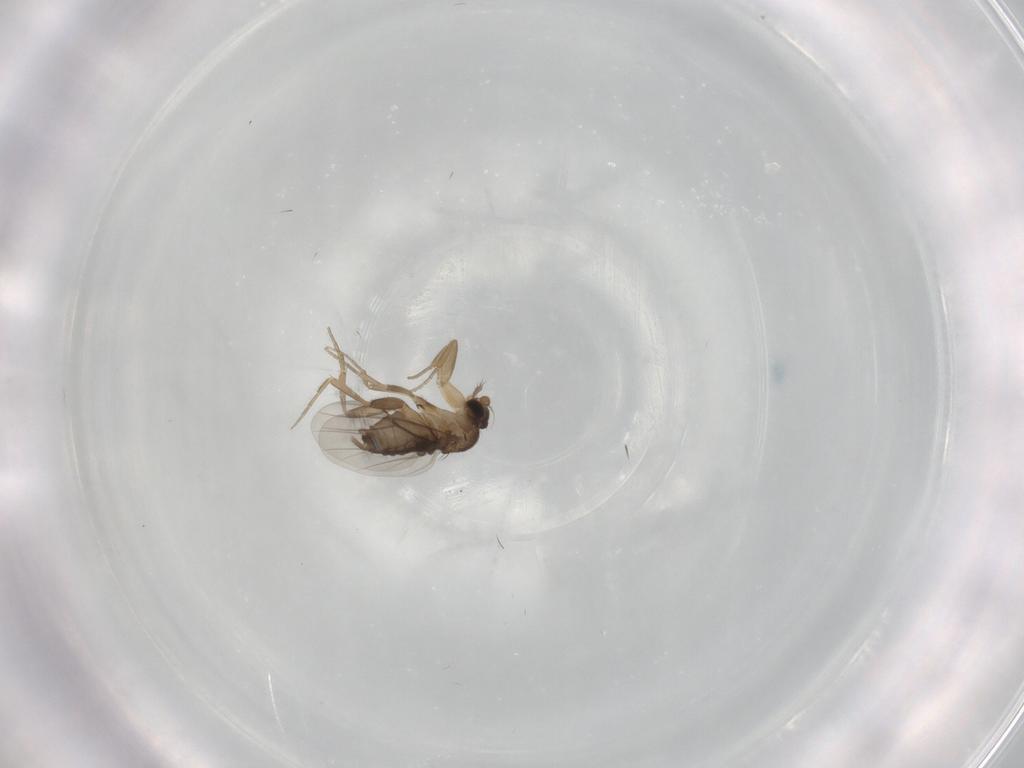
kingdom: Animalia
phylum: Arthropoda
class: Insecta
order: Diptera
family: Phoridae
